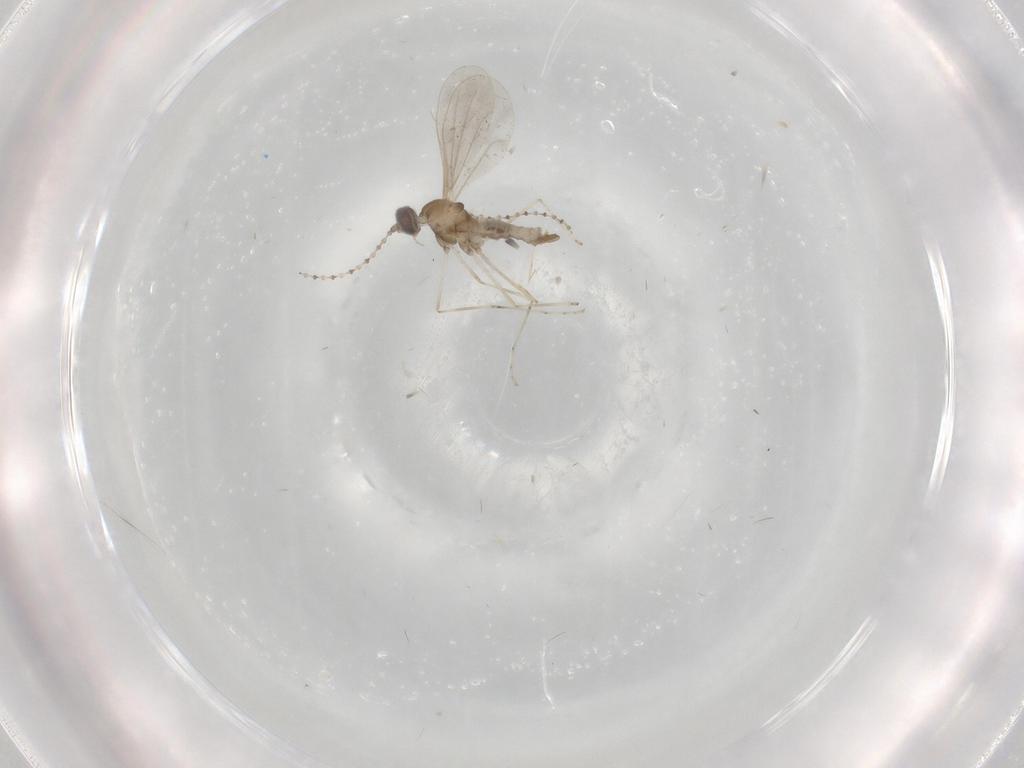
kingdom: Animalia
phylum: Arthropoda
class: Insecta
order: Diptera
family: Cecidomyiidae
